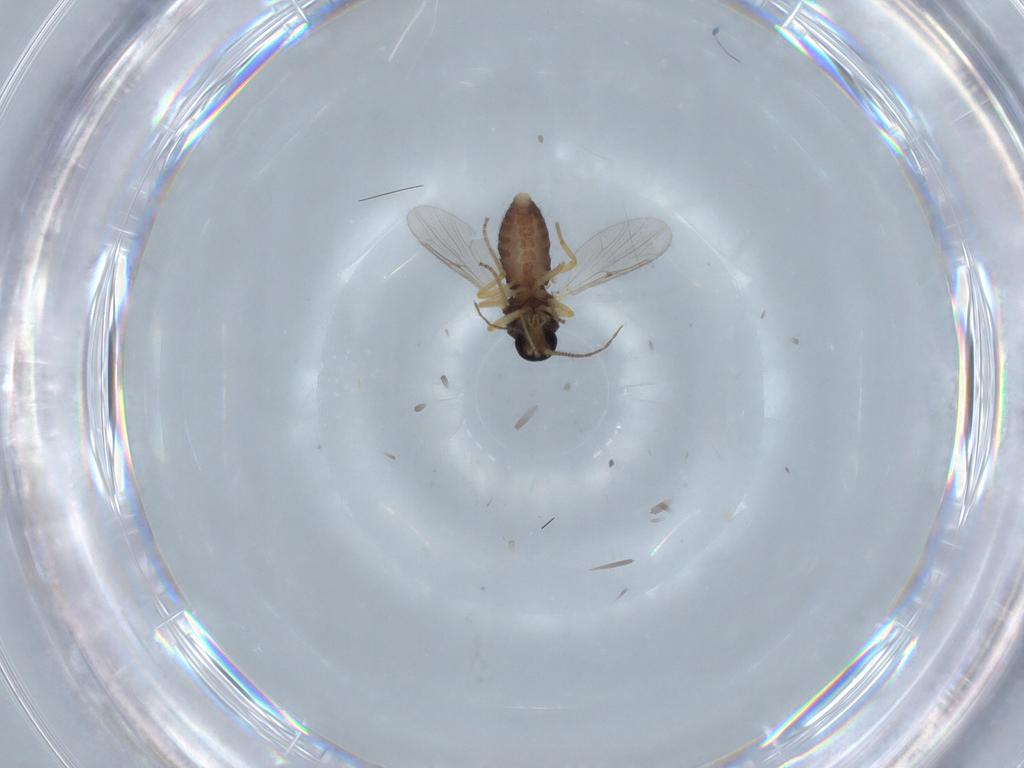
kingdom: Animalia
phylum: Arthropoda
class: Insecta
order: Diptera
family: Ceratopogonidae
